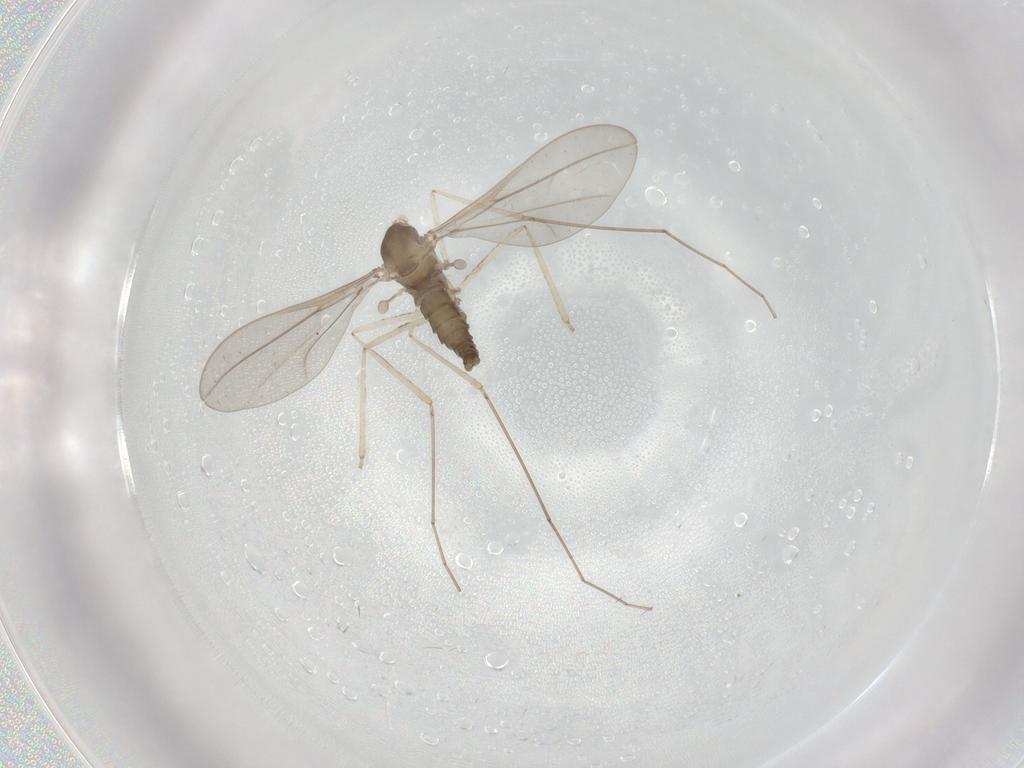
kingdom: Animalia
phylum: Arthropoda
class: Insecta
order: Diptera
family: Cecidomyiidae
